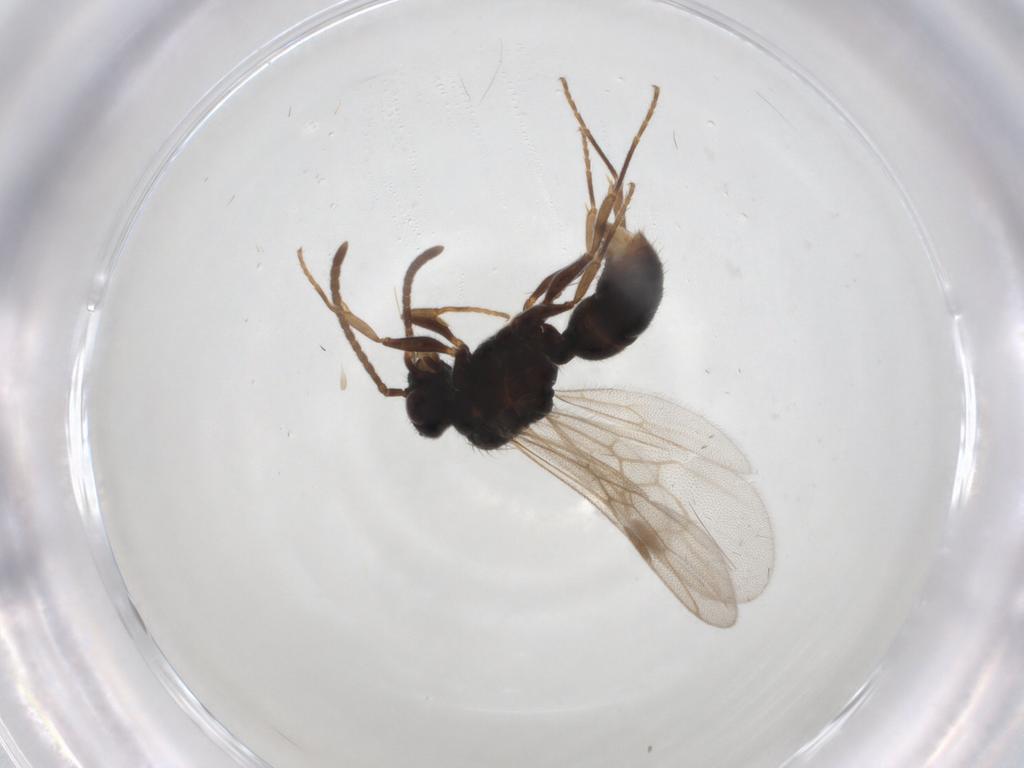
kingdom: Animalia
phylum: Arthropoda
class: Insecta
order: Hymenoptera
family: Formicidae
